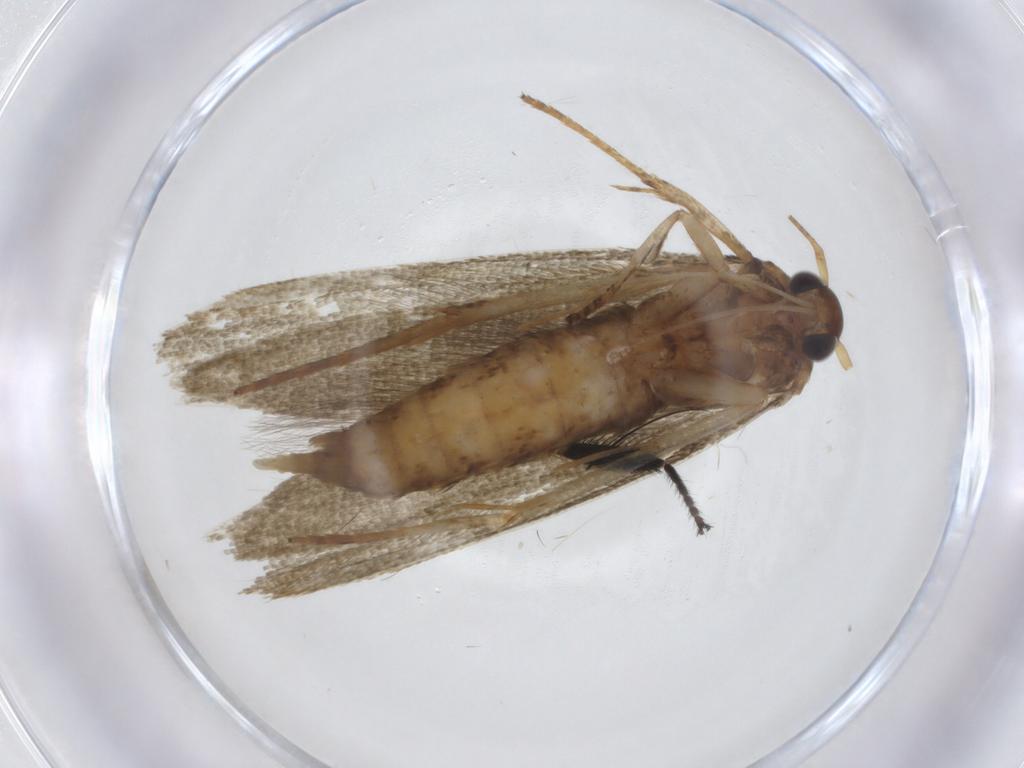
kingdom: Animalia
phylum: Arthropoda
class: Insecta
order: Lepidoptera
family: Blastobasidae
